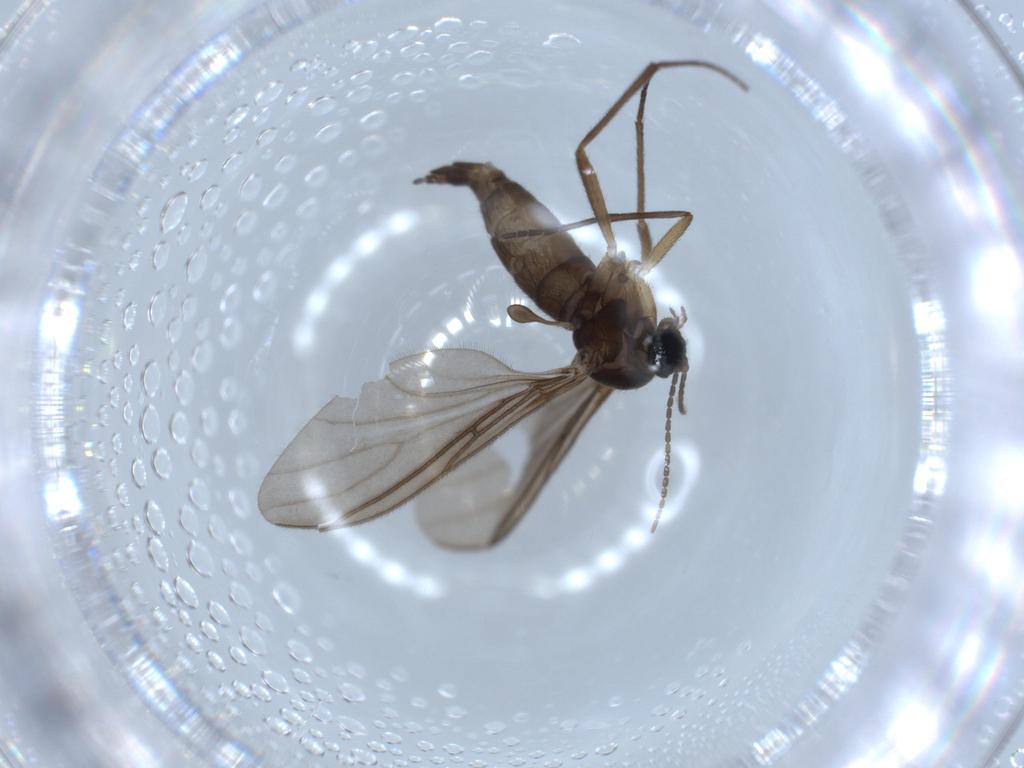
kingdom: Animalia
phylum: Arthropoda
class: Insecta
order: Diptera
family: Sciaridae
